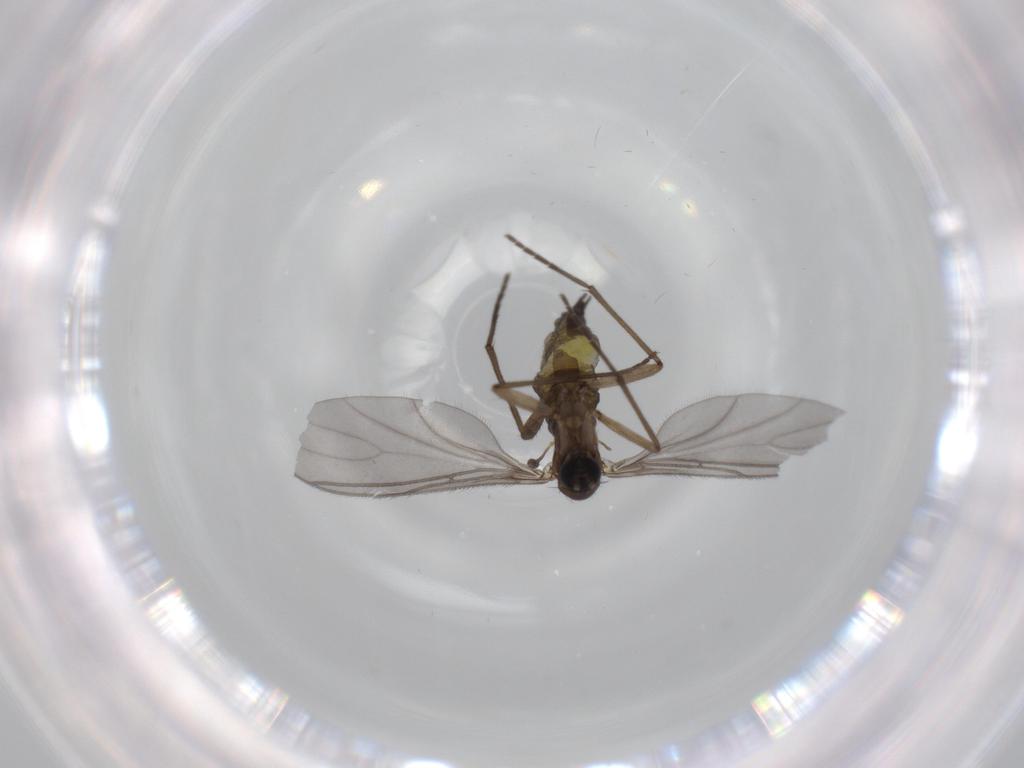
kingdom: Animalia
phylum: Arthropoda
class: Insecta
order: Diptera
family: Sciaridae
